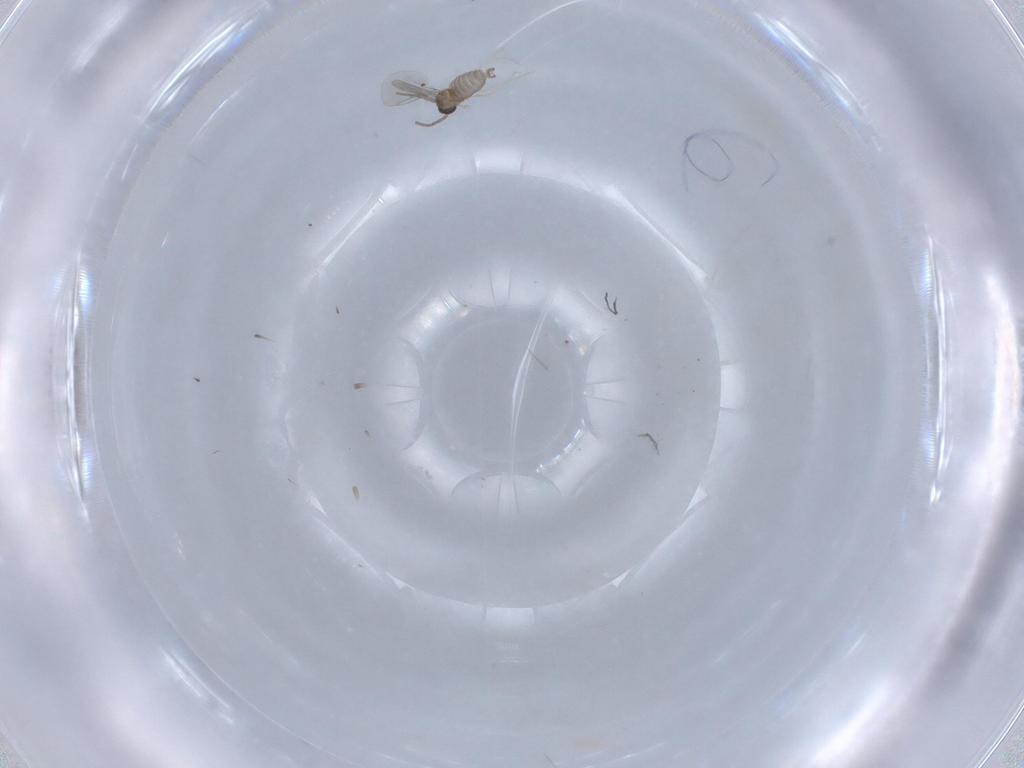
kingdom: Animalia
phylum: Arthropoda
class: Insecta
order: Diptera
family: Cecidomyiidae
